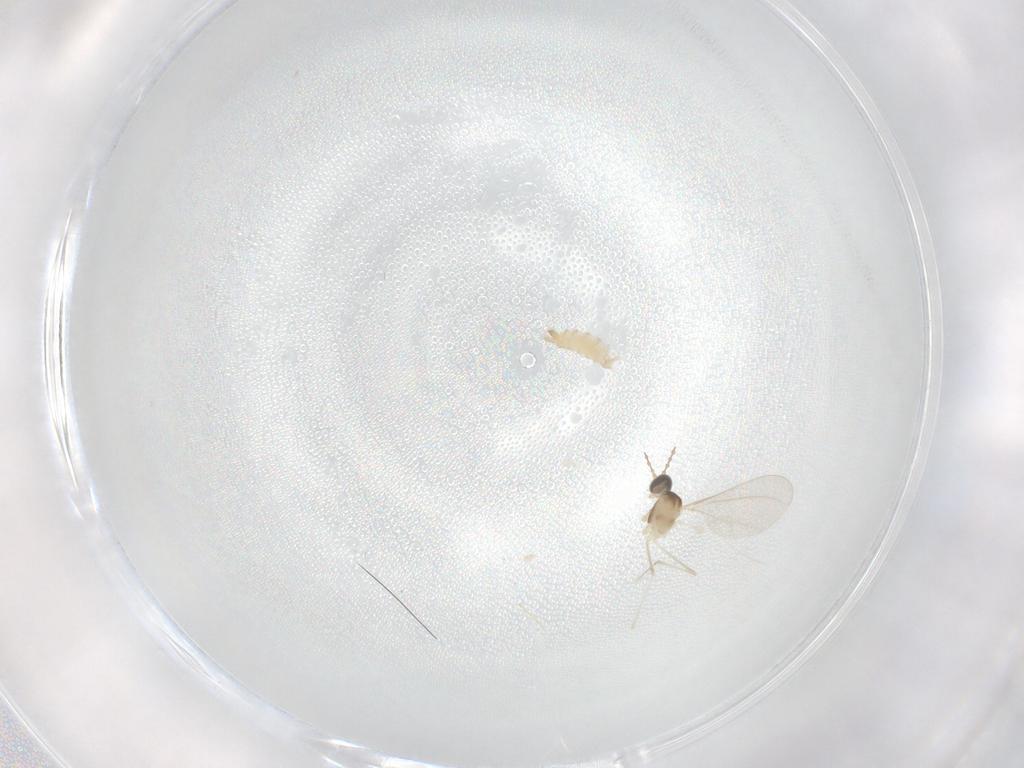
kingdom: Animalia
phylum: Arthropoda
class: Insecta
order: Diptera
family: Cecidomyiidae
